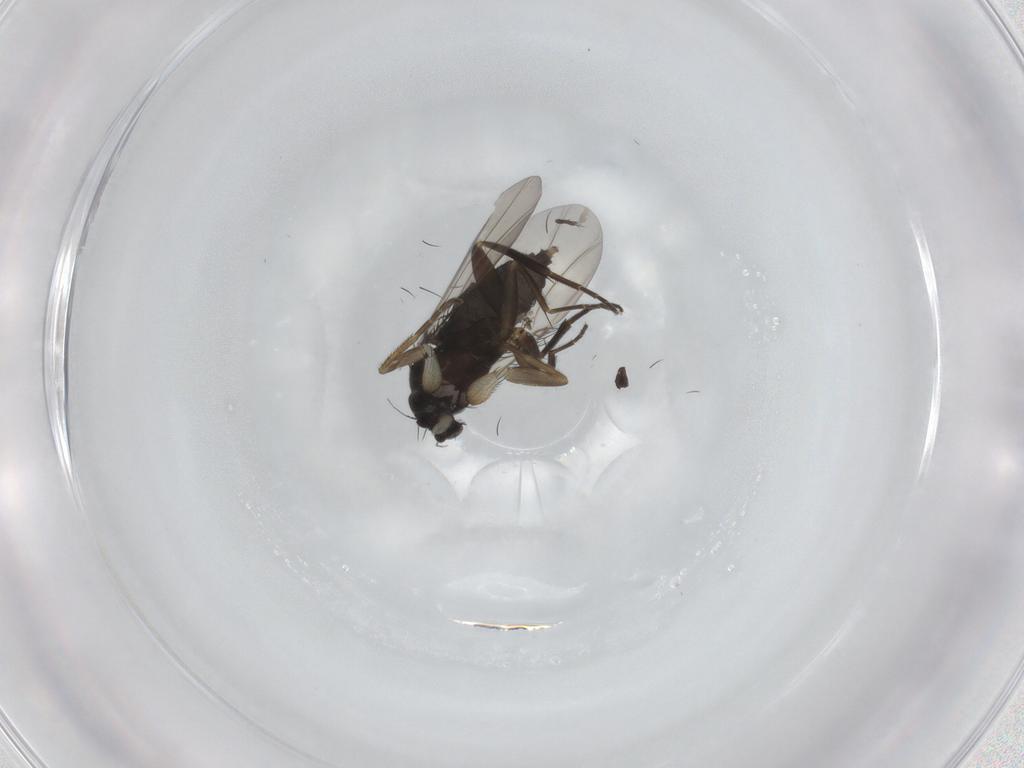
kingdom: Animalia
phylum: Arthropoda
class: Insecta
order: Diptera
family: Phoridae
